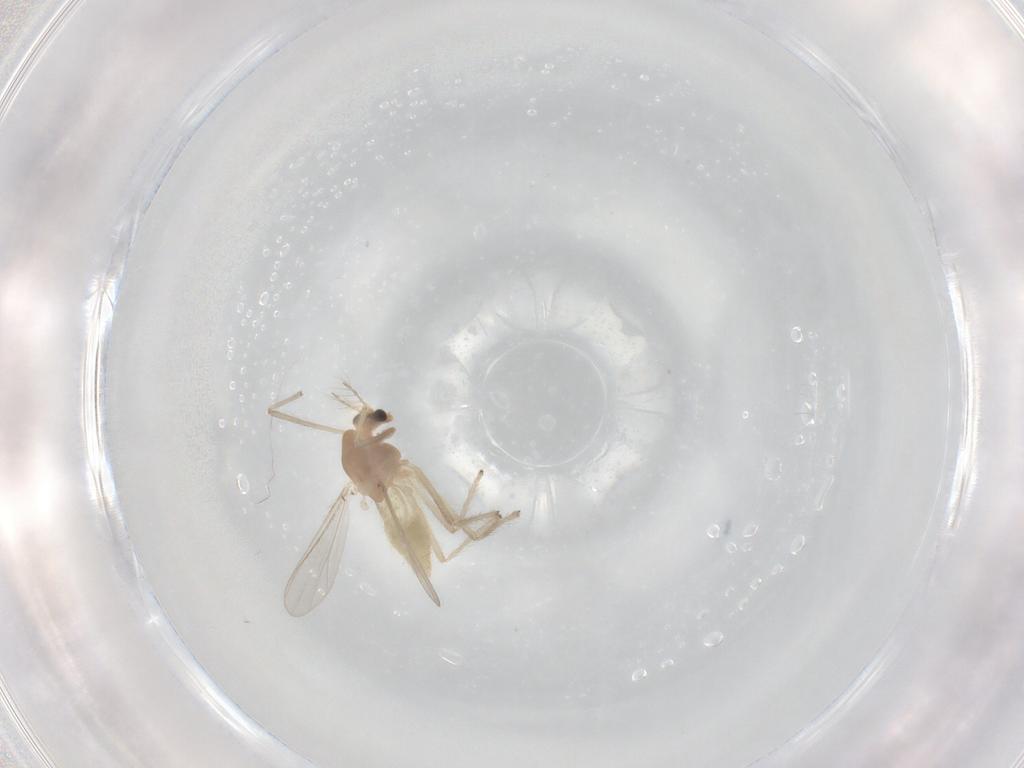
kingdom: Animalia
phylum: Arthropoda
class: Insecta
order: Diptera
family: Chironomidae
